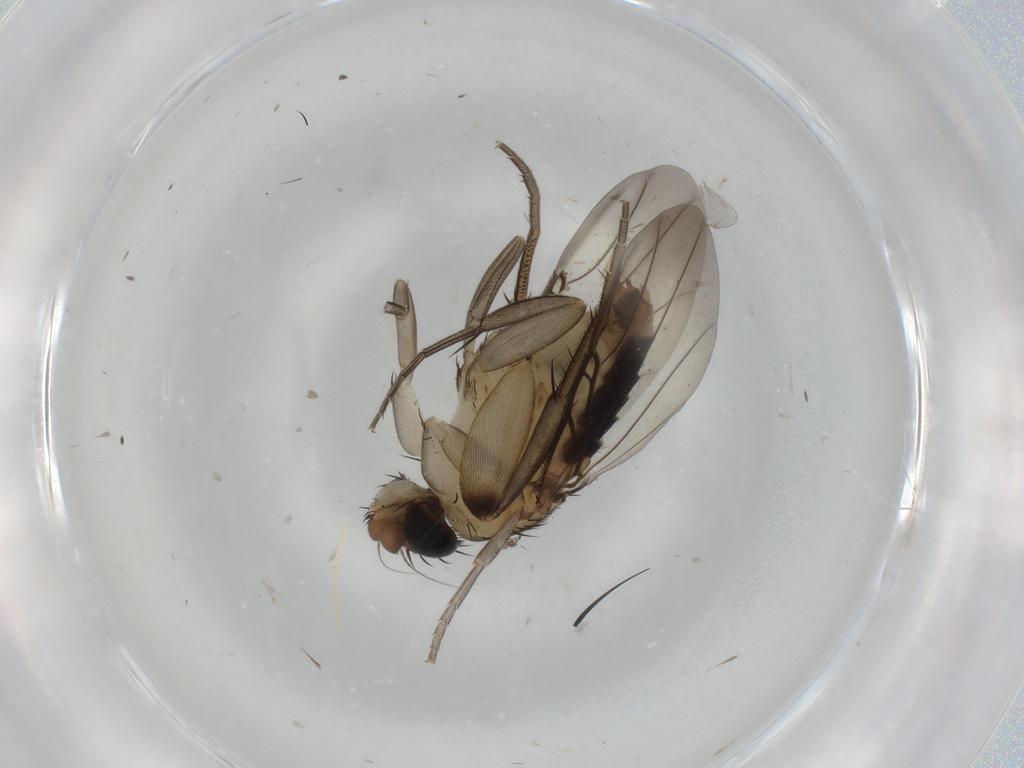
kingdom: Animalia
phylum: Arthropoda
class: Insecta
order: Diptera
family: Phoridae
